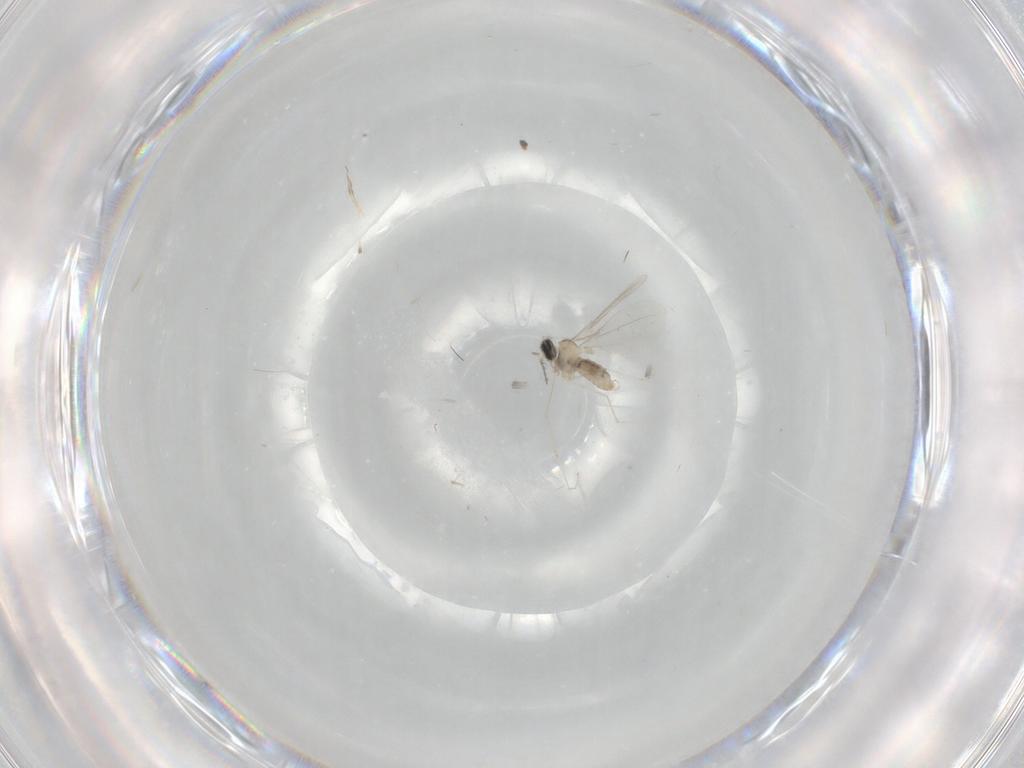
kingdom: Animalia
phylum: Arthropoda
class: Insecta
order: Diptera
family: Cecidomyiidae
